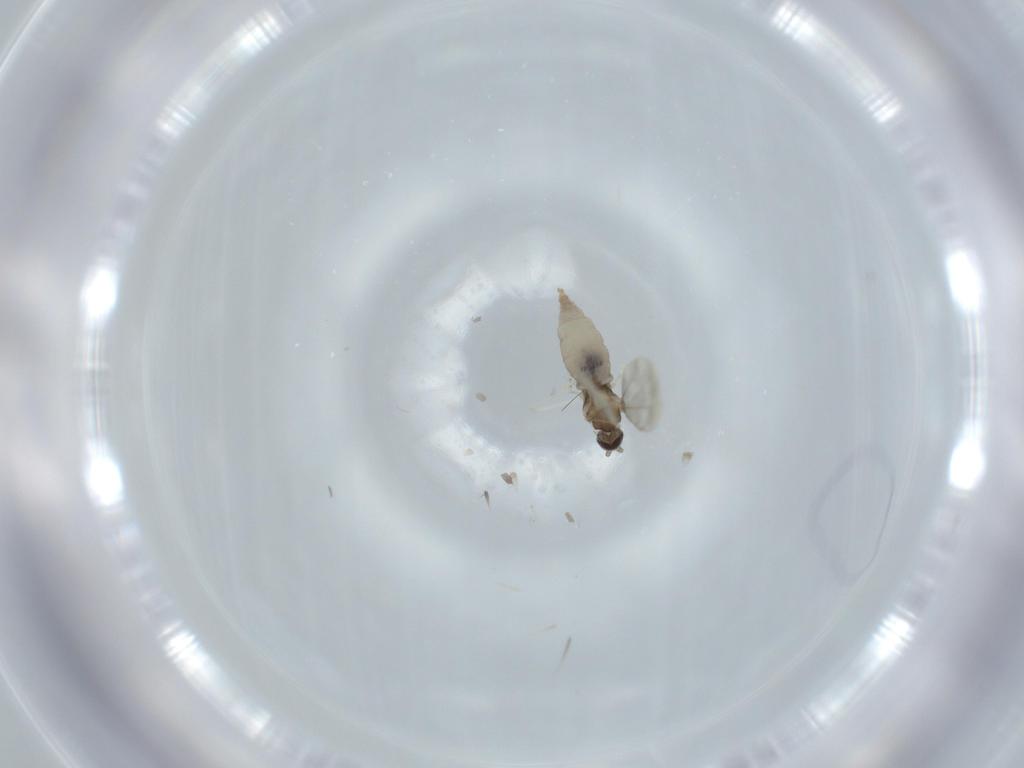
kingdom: Animalia
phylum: Arthropoda
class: Insecta
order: Diptera
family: Cecidomyiidae
